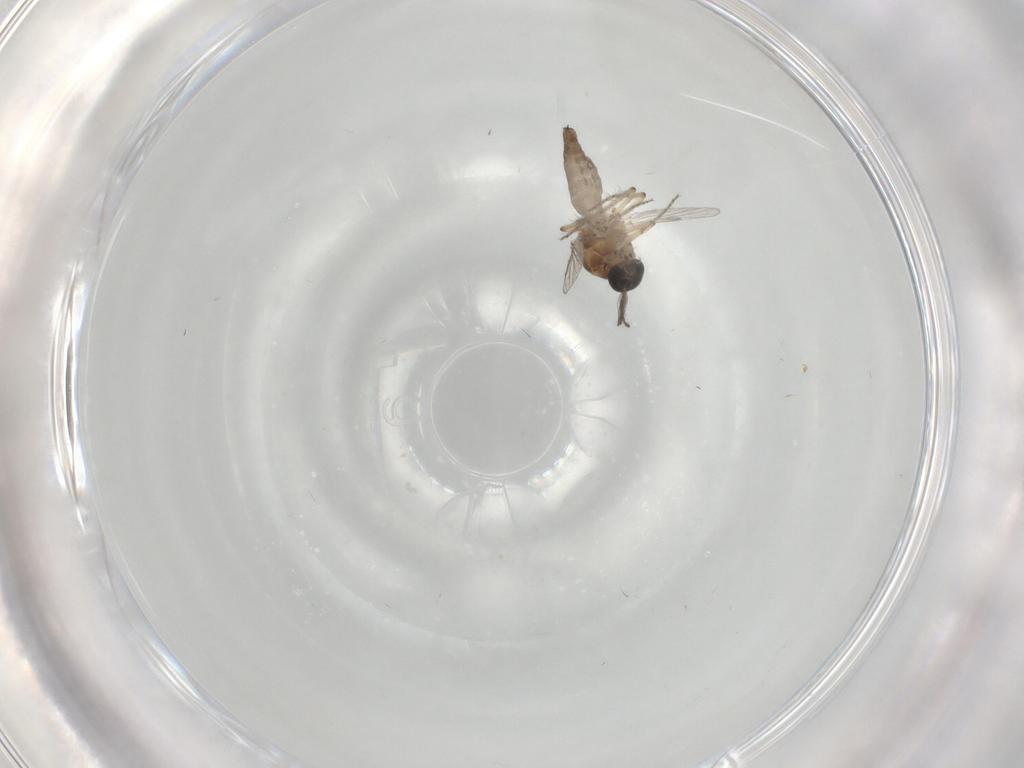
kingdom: Animalia
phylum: Arthropoda
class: Insecta
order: Diptera
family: Ceratopogonidae
